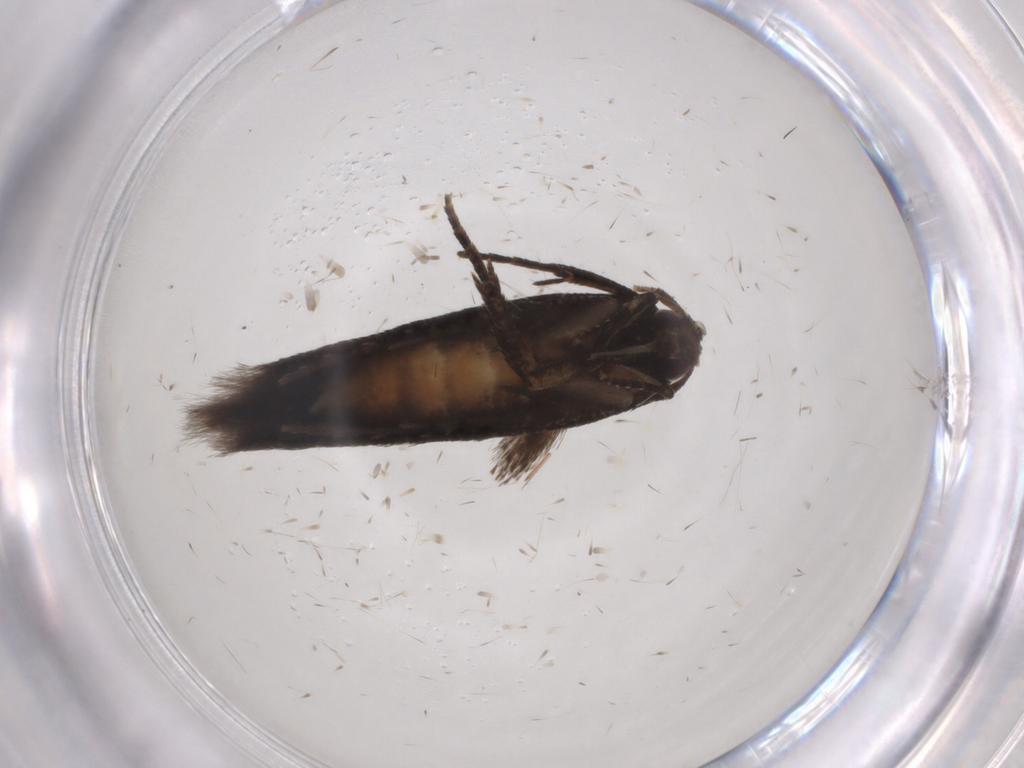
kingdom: Animalia
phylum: Arthropoda
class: Insecta
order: Lepidoptera
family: Cosmopterigidae
